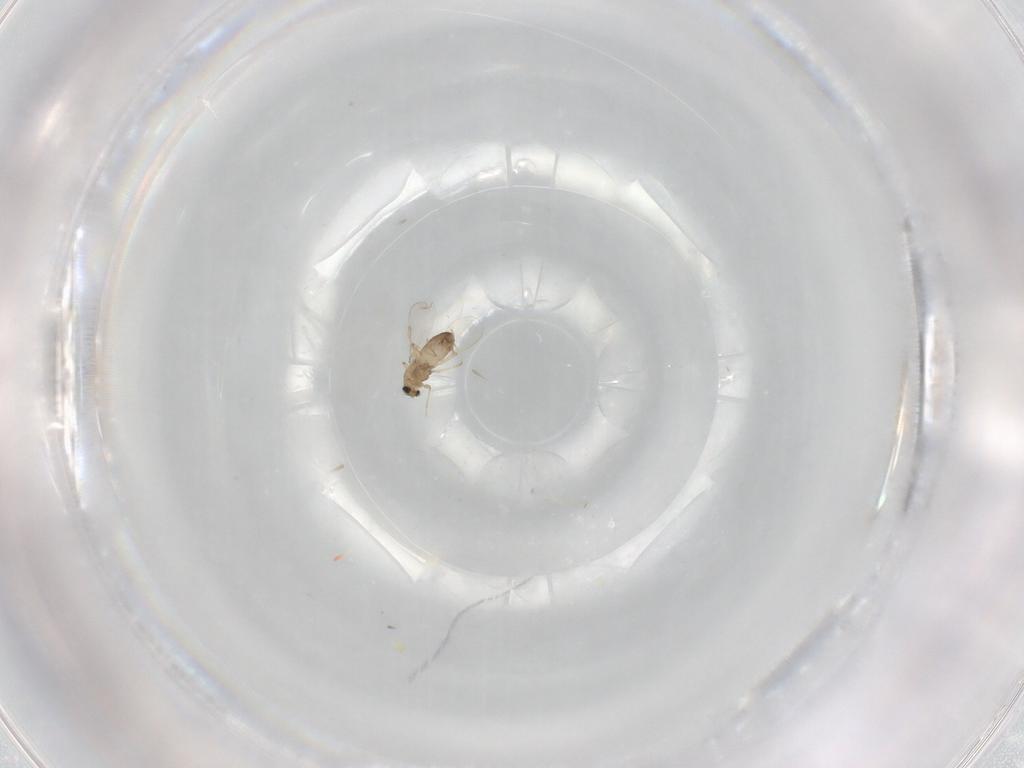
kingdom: Animalia
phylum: Arthropoda
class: Insecta
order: Diptera
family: Chironomidae
